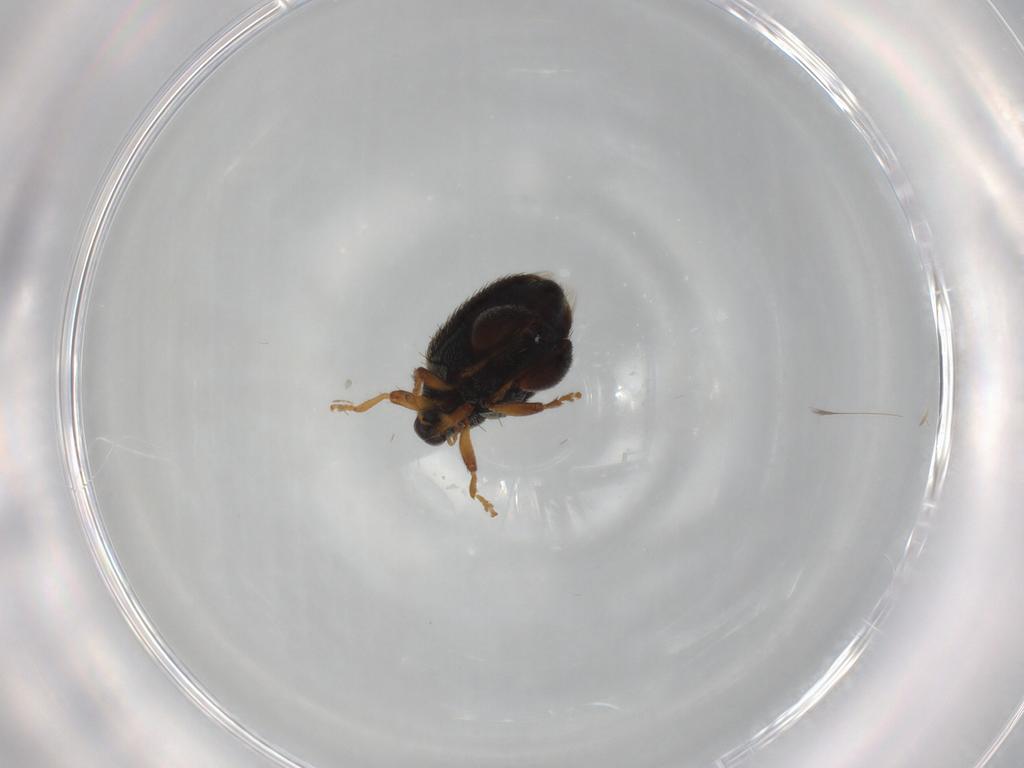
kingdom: Animalia
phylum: Arthropoda
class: Insecta
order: Coleoptera
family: Curculionidae
